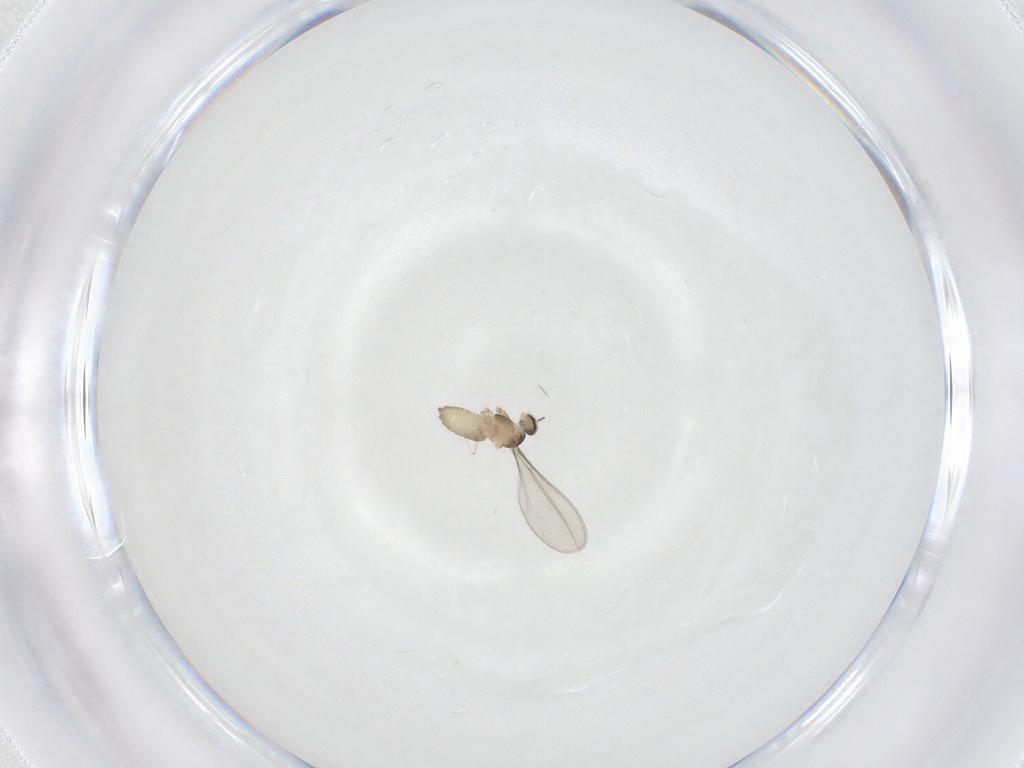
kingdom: Animalia
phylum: Arthropoda
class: Insecta
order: Diptera
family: Cecidomyiidae
